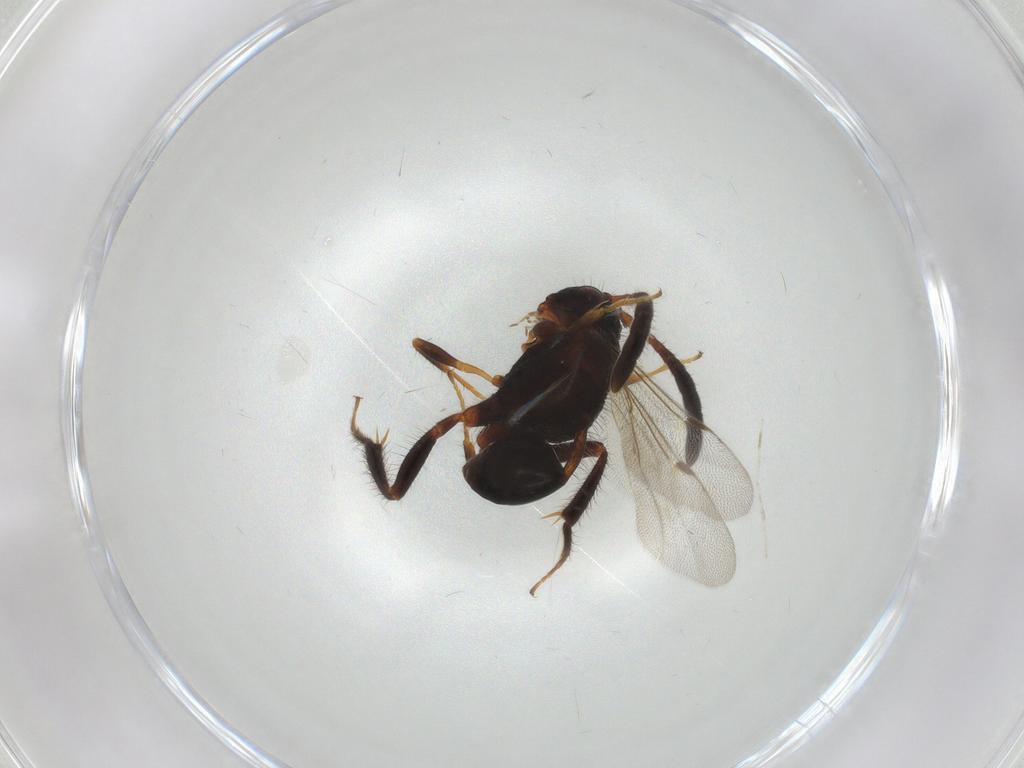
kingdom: Animalia
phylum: Arthropoda
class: Insecta
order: Hymenoptera
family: Evaniidae
